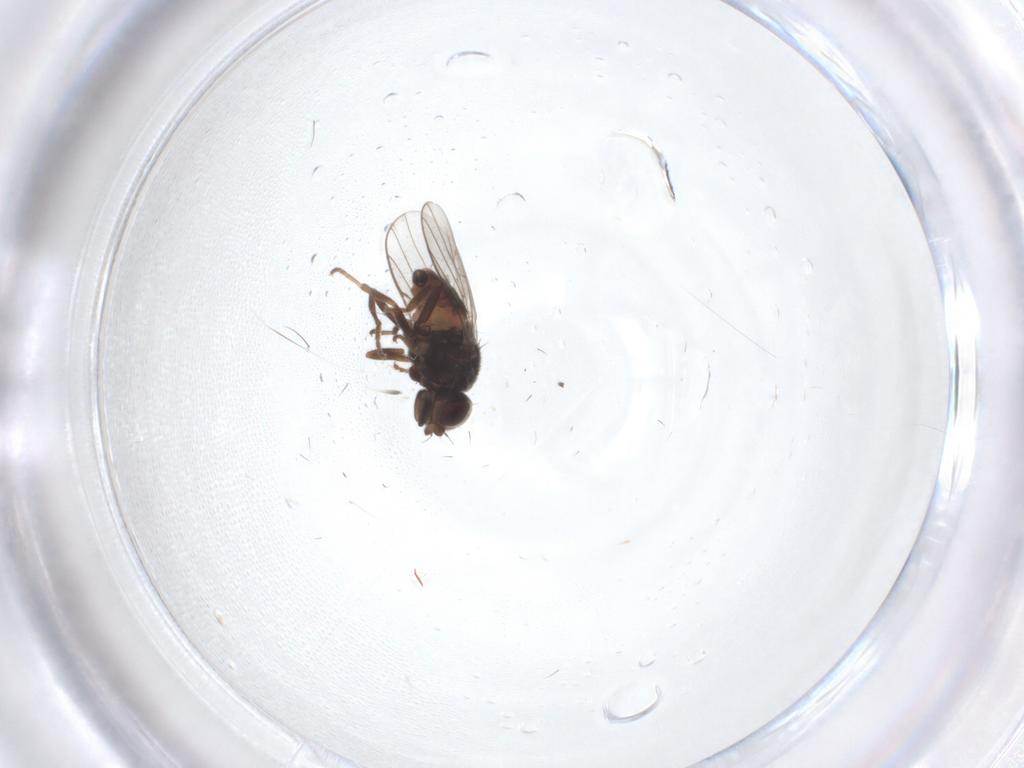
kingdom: Animalia
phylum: Arthropoda
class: Insecta
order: Diptera
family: Chloropidae
